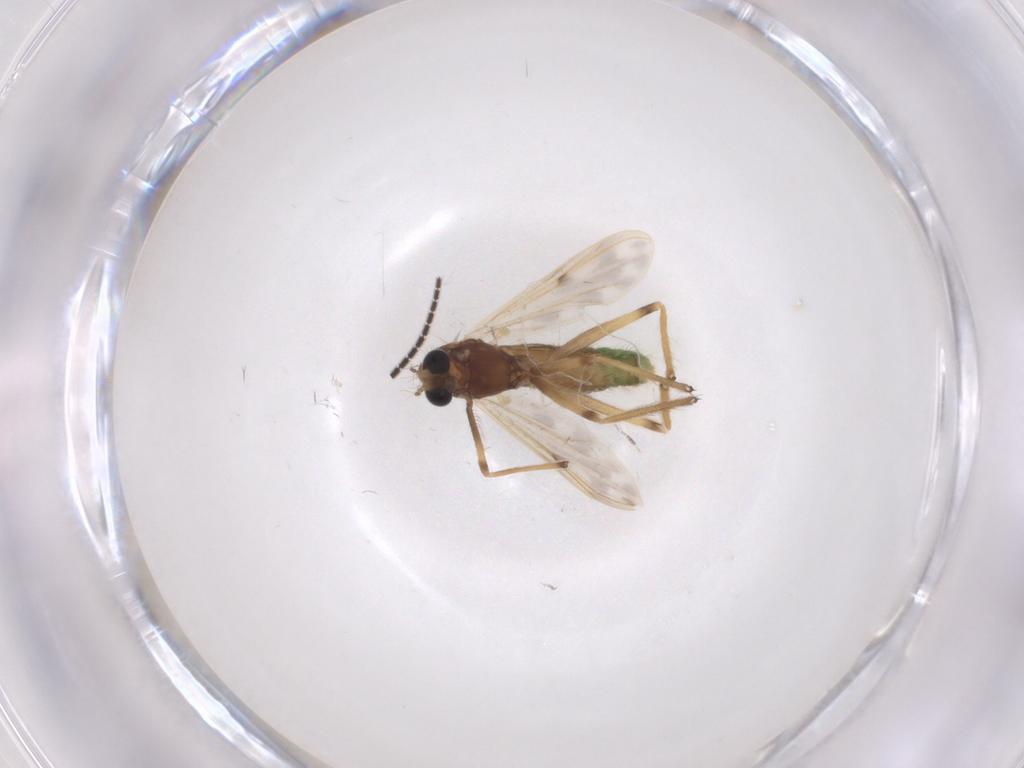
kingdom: Animalia
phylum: Arthropoda
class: Insecta
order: Diptera
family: Chironomidae
